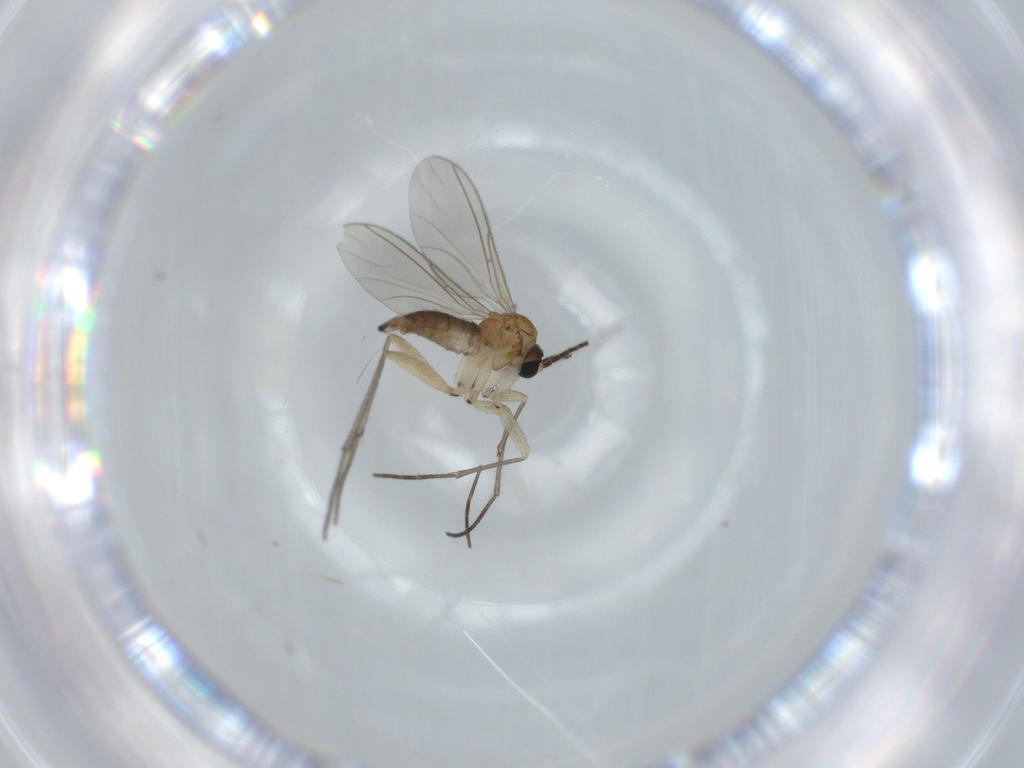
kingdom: Animalia
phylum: Arthropoda
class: Insecta
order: Diptera
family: Sciaridae
